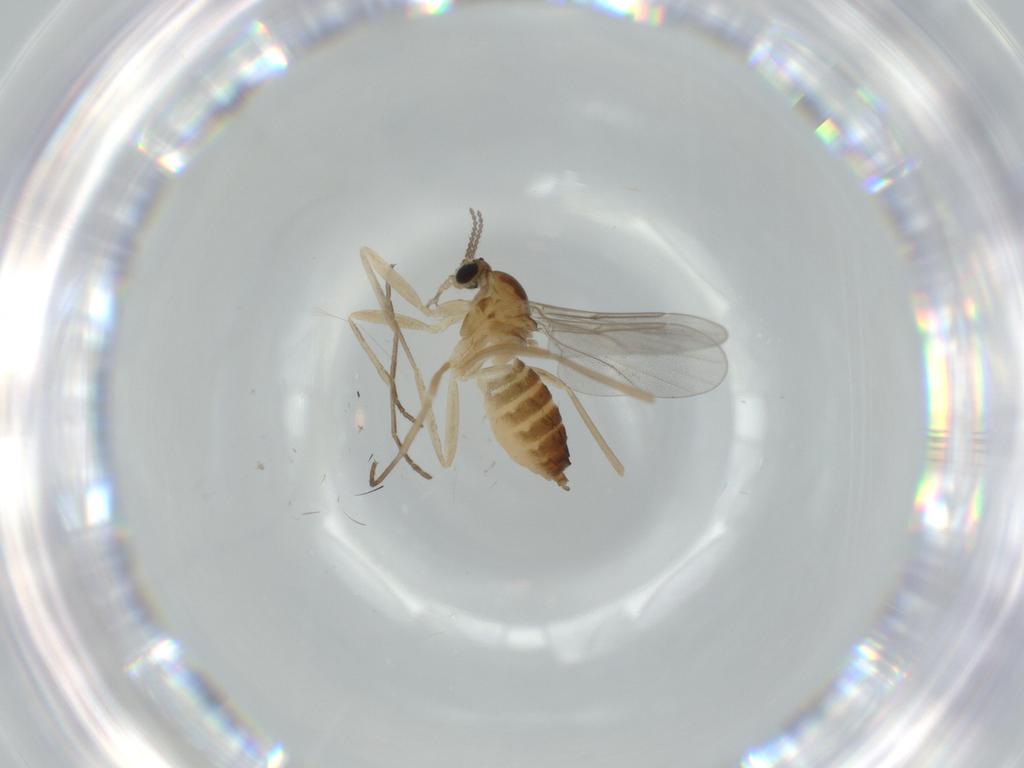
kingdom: Animalia
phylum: Arthropoda
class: Insecta
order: Diptera
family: Cecidomyiidae
